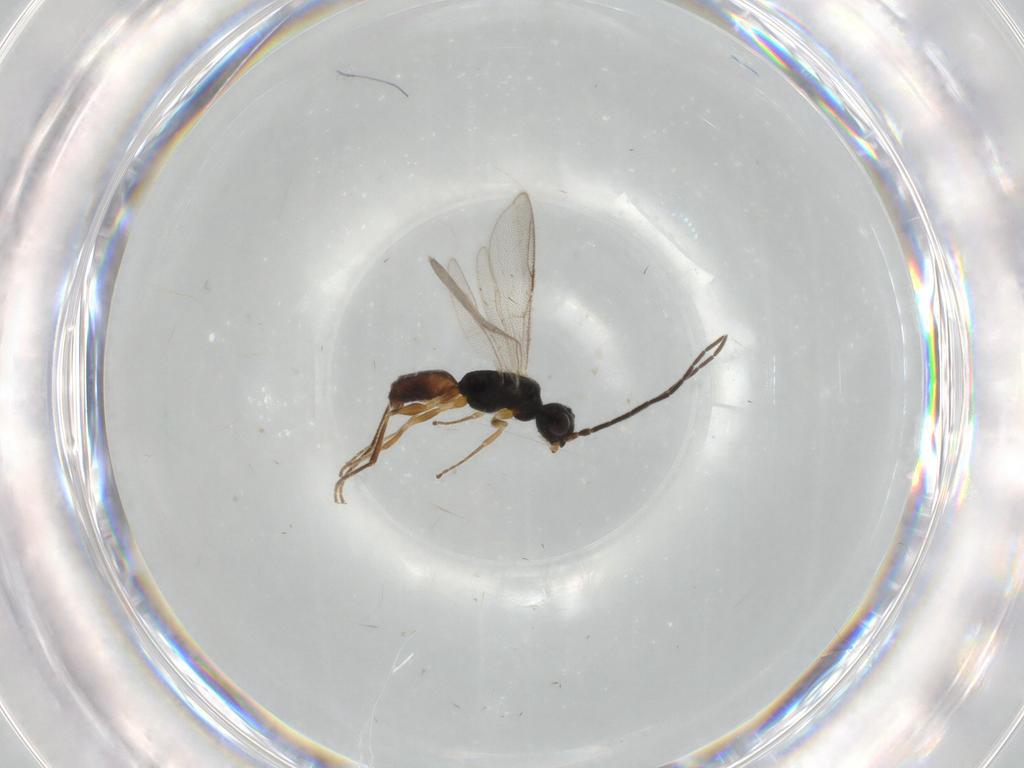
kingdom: Animalia
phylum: Arthropoda
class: Insecta
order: Hymenoptera
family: Dryinidae
